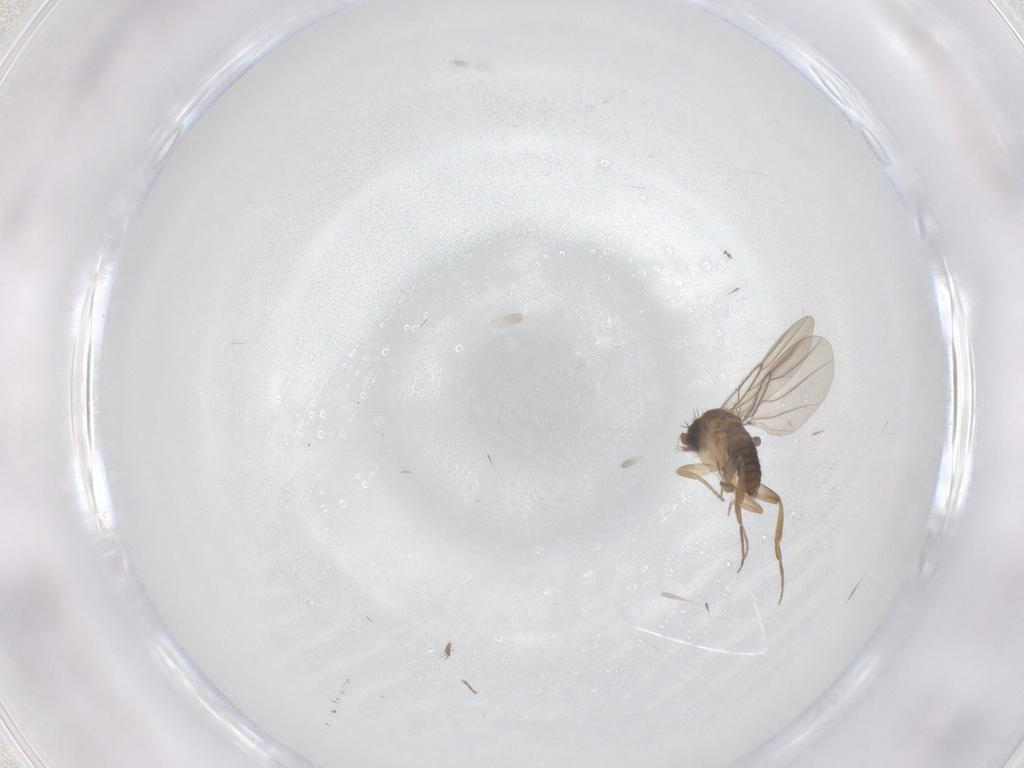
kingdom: Animalia
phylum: Arthropoda
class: Insecta
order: Diptera
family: Phoridae
